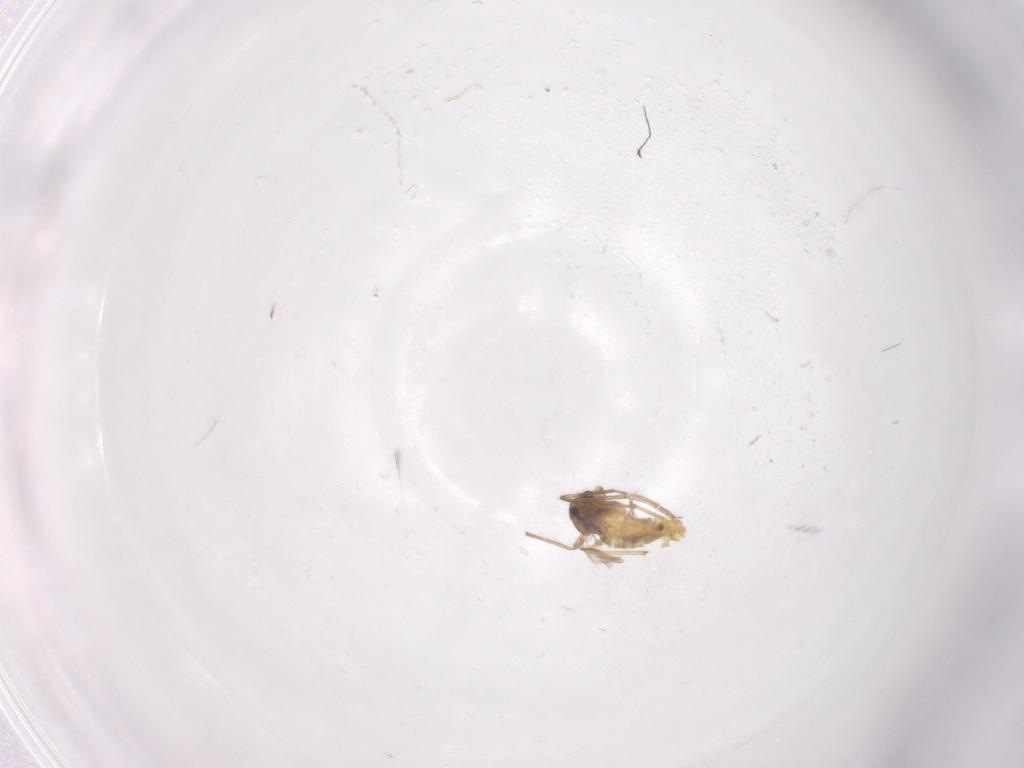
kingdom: Animalia
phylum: Arthropoda
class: Insecta
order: Diptera
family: Chironomidae
